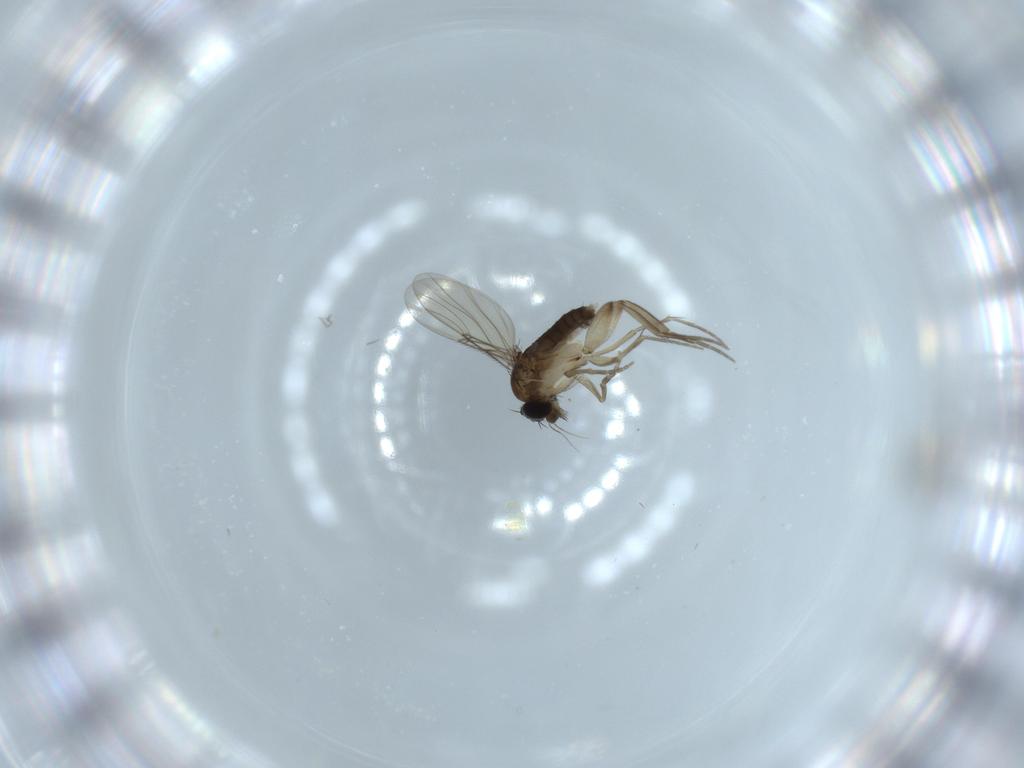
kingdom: Animalia
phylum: Arthropoda
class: Insecta
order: Diptera
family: Cecidomyiidae
